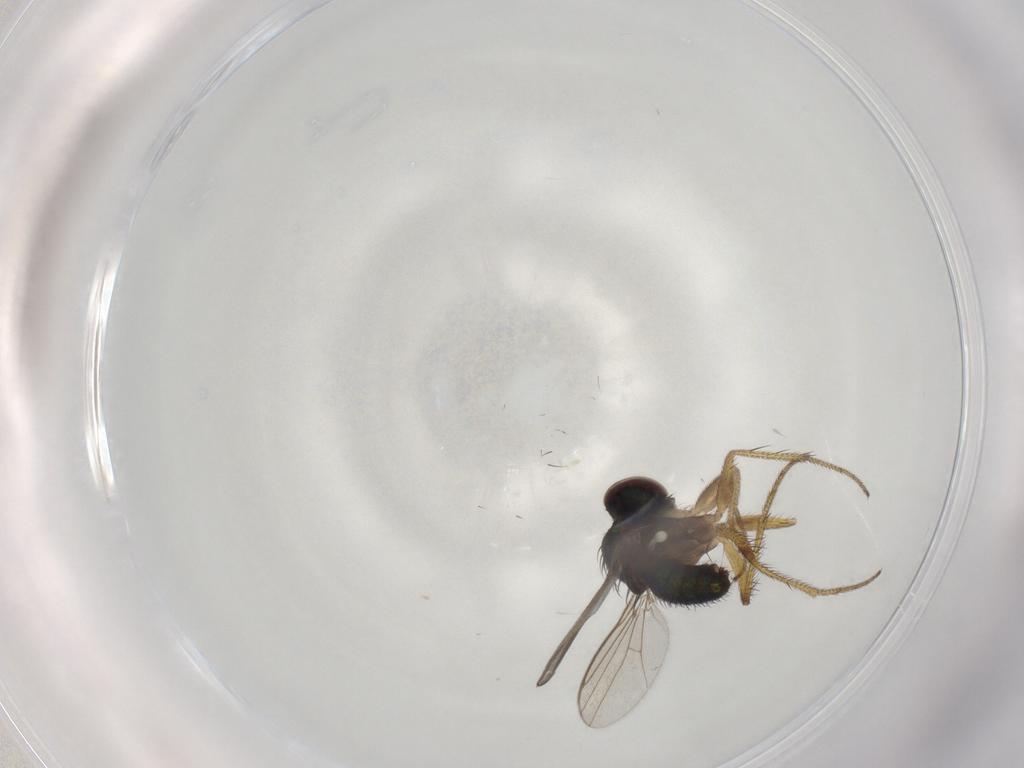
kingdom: Animalia
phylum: Arthropoda
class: Insecta
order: Diptera
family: Dolichopodidae
